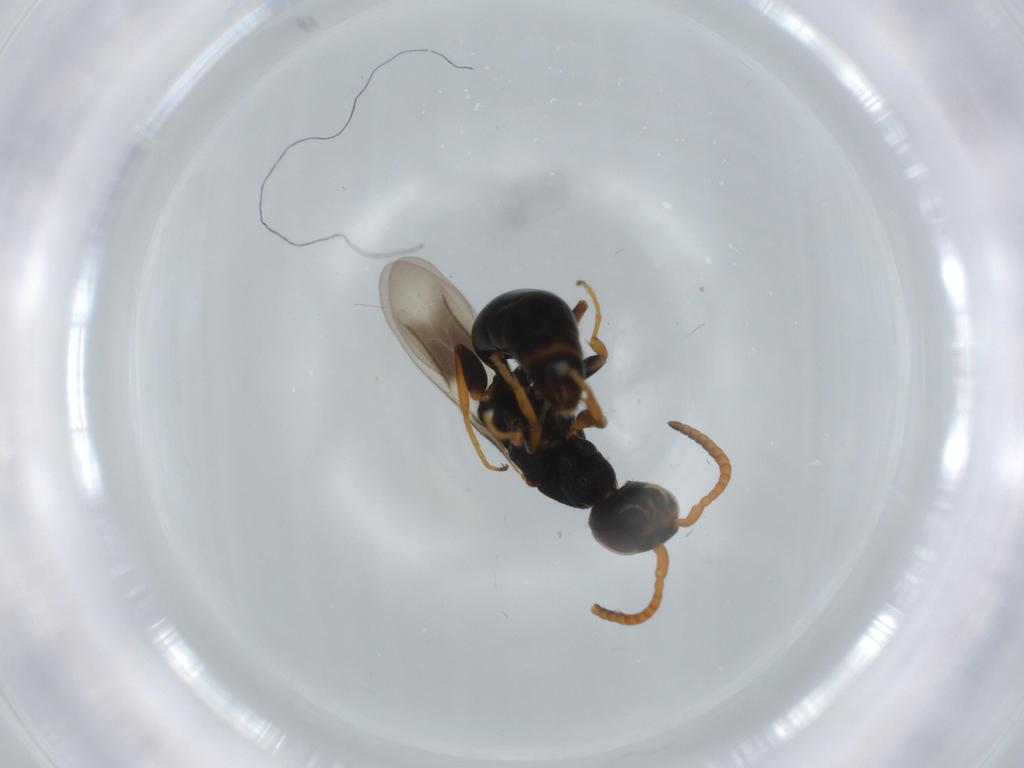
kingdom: Animalia
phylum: Arthropoda
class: Insecta
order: Hymenoptera
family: Bethylidae
